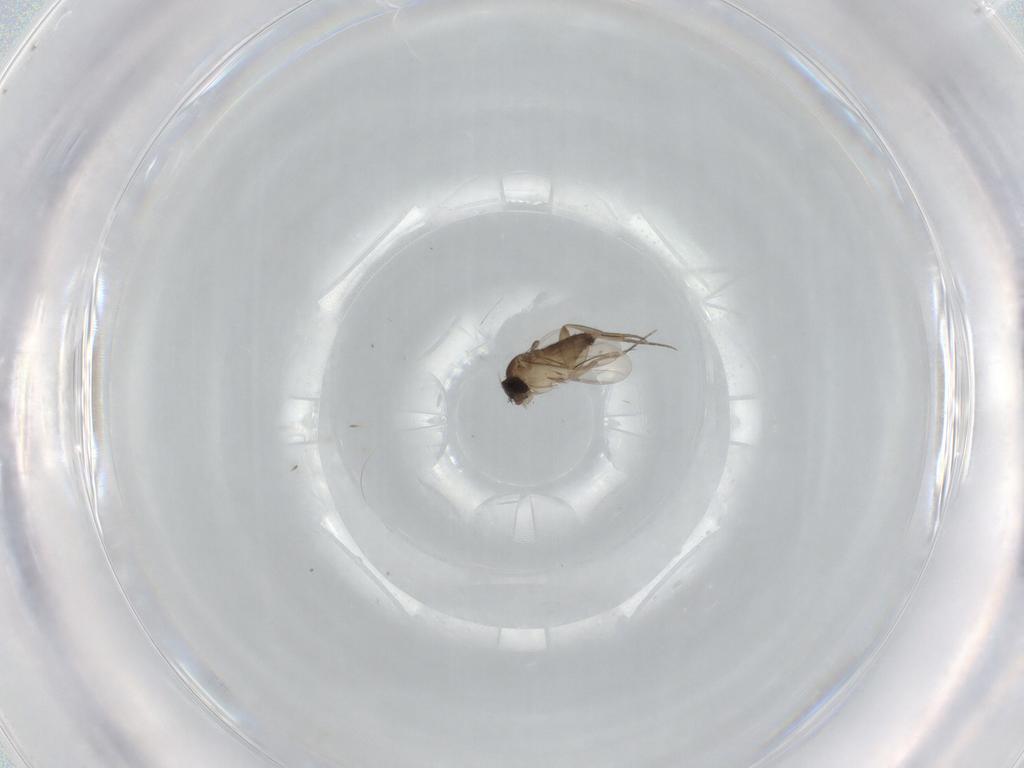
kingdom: Animalia
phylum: Arthropoda
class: Insecta
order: Diptera
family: Phoridae
